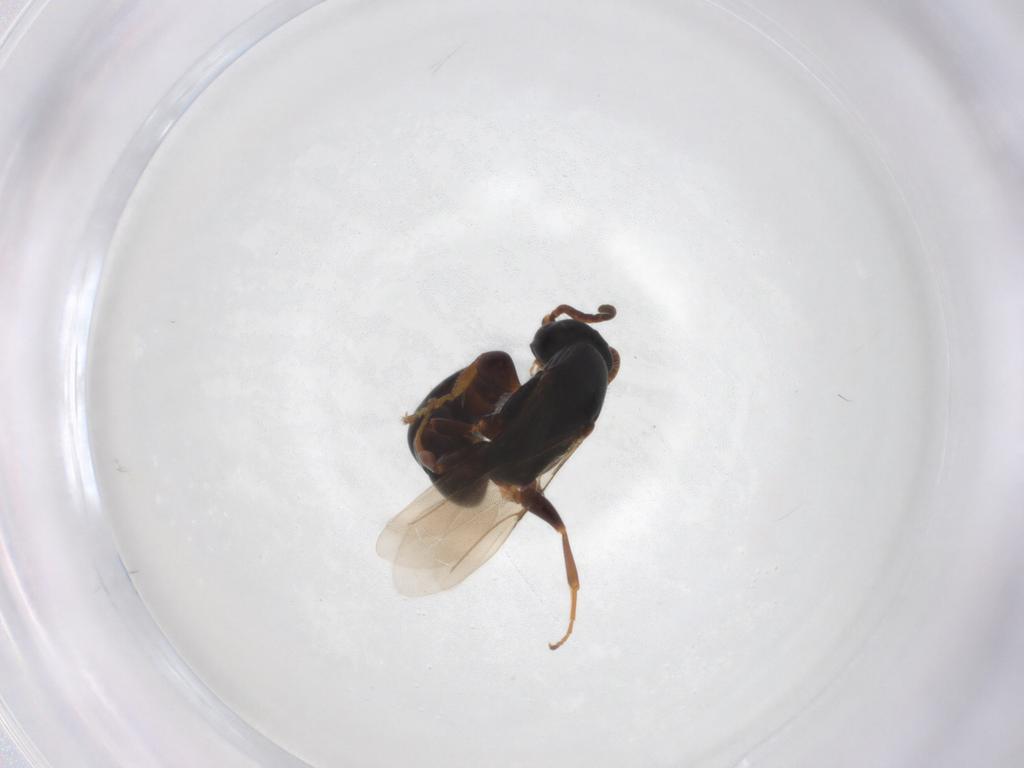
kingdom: Animalia
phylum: Arthropoda
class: Insecta
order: Hymenoptera
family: Bethylidae
